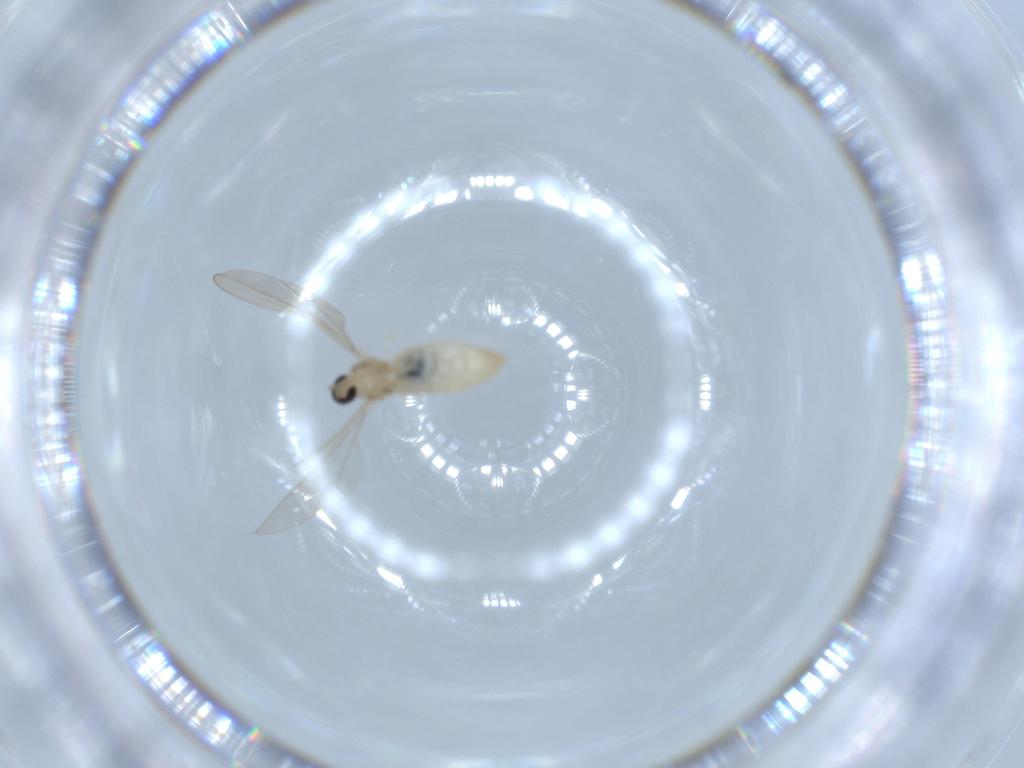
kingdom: Animalia
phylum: Arthropoda
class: Insecta
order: Diptera
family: Cecidomyiidae
